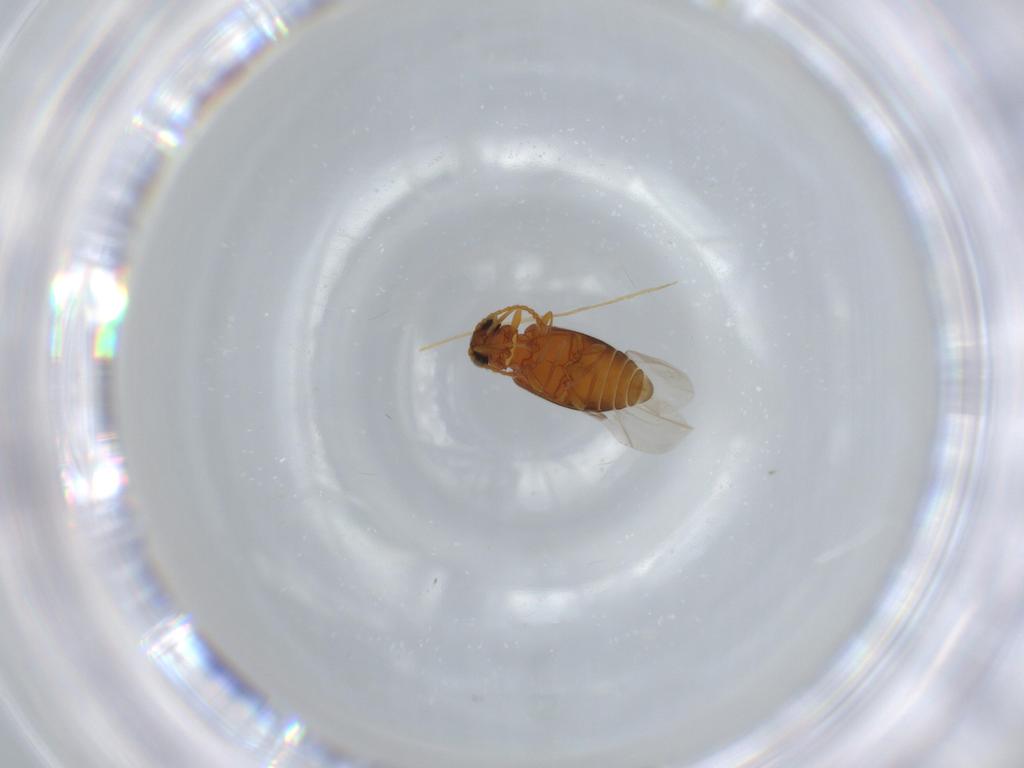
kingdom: Animalia
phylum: Arthropoda
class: Insecta
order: Coleoptera
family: Aderidae
